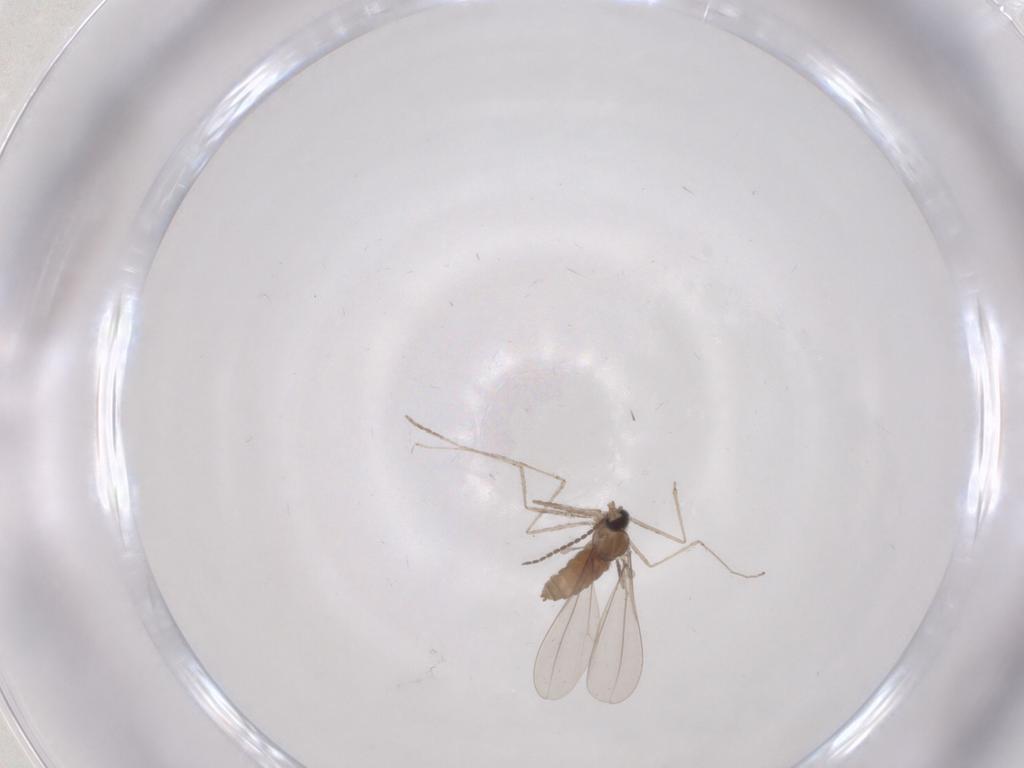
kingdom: Animalia
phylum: Arthropoda
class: Insecta
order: Diptera
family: Cecidomyiidae
